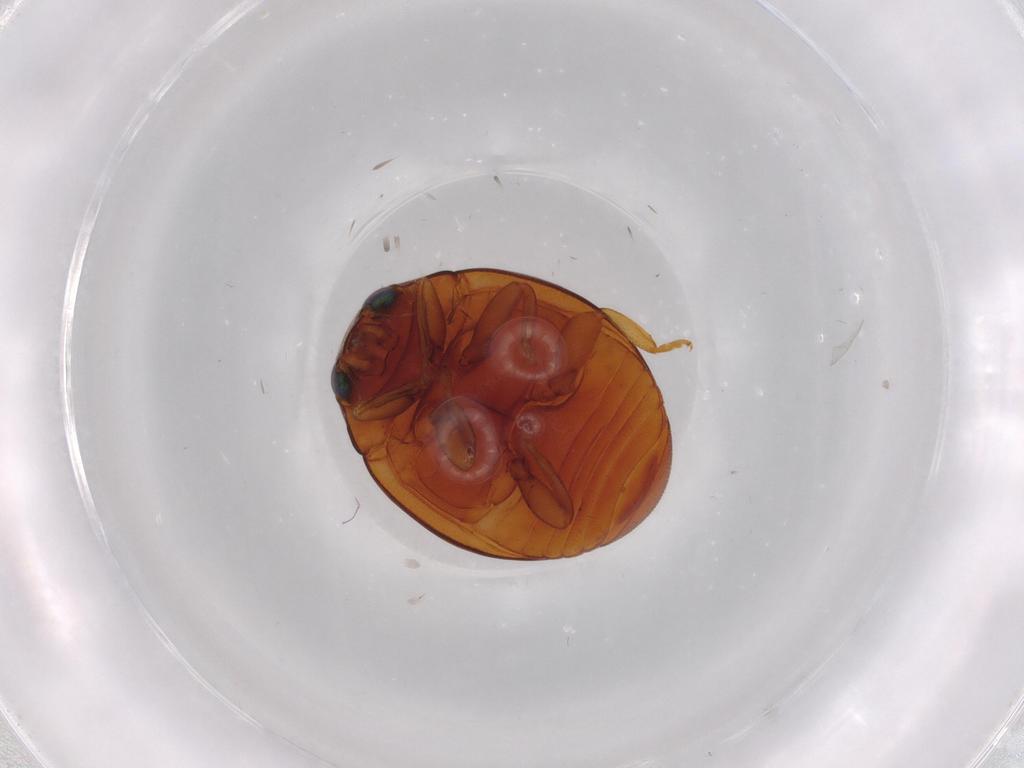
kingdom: Animalia
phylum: Arthropoda
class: Insecta
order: Coleoptera
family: Coccinellidae
